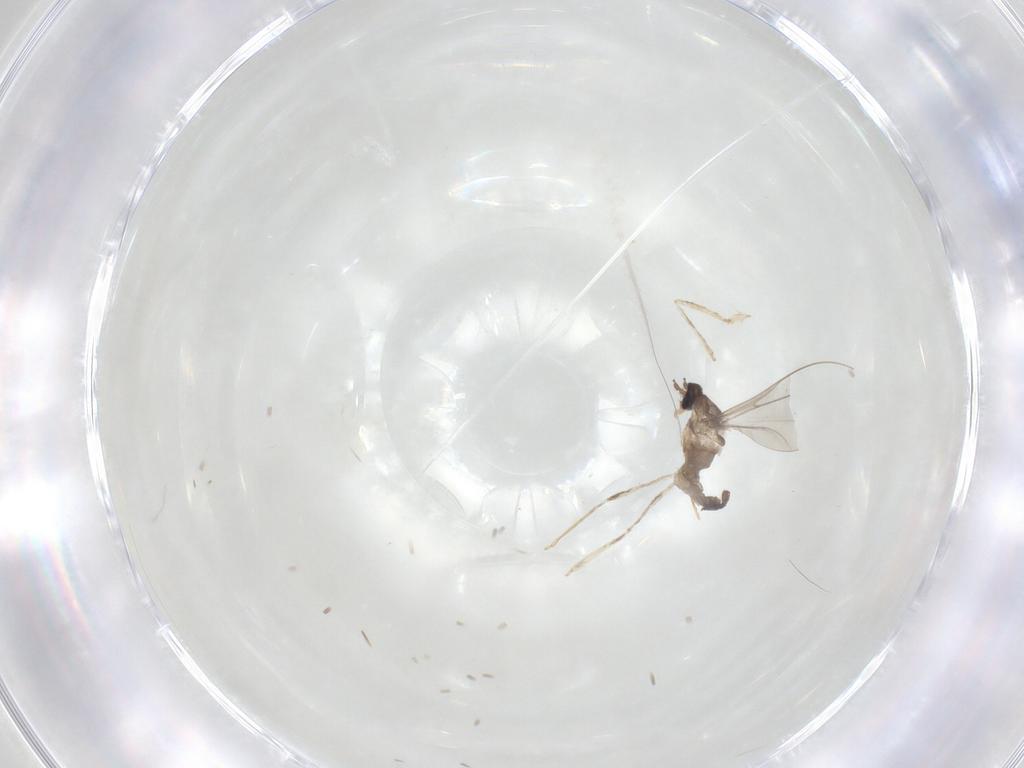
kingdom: Animalia
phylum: Arthropoda
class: Insecta
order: Diptera
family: Cecidomyiidae
